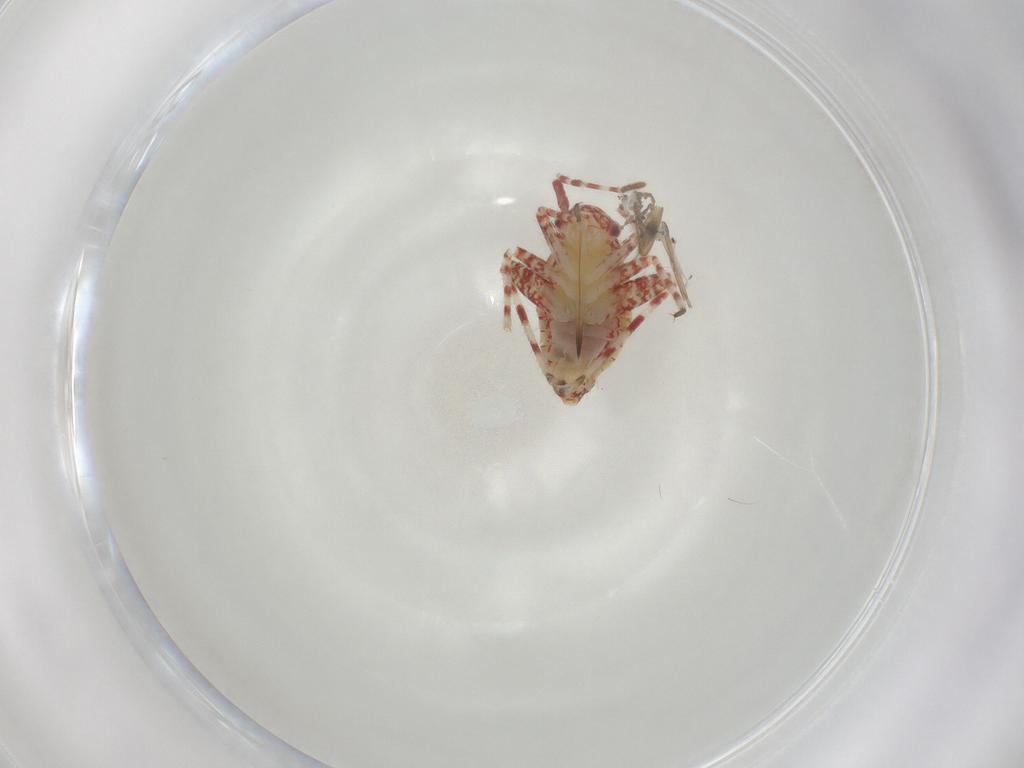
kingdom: Animalia
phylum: Arthropoda
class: Insecta
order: Hemiptera
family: Miridae
